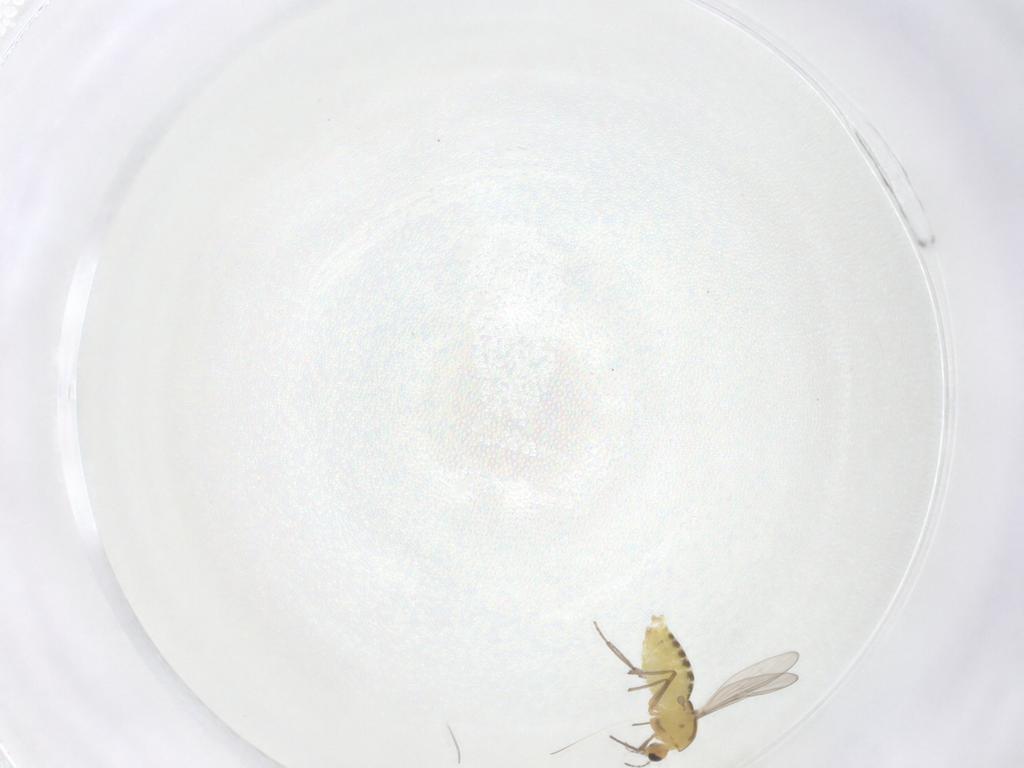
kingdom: Animalia
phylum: Arthropoda
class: Insecta
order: Diptera
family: Chironomidae
